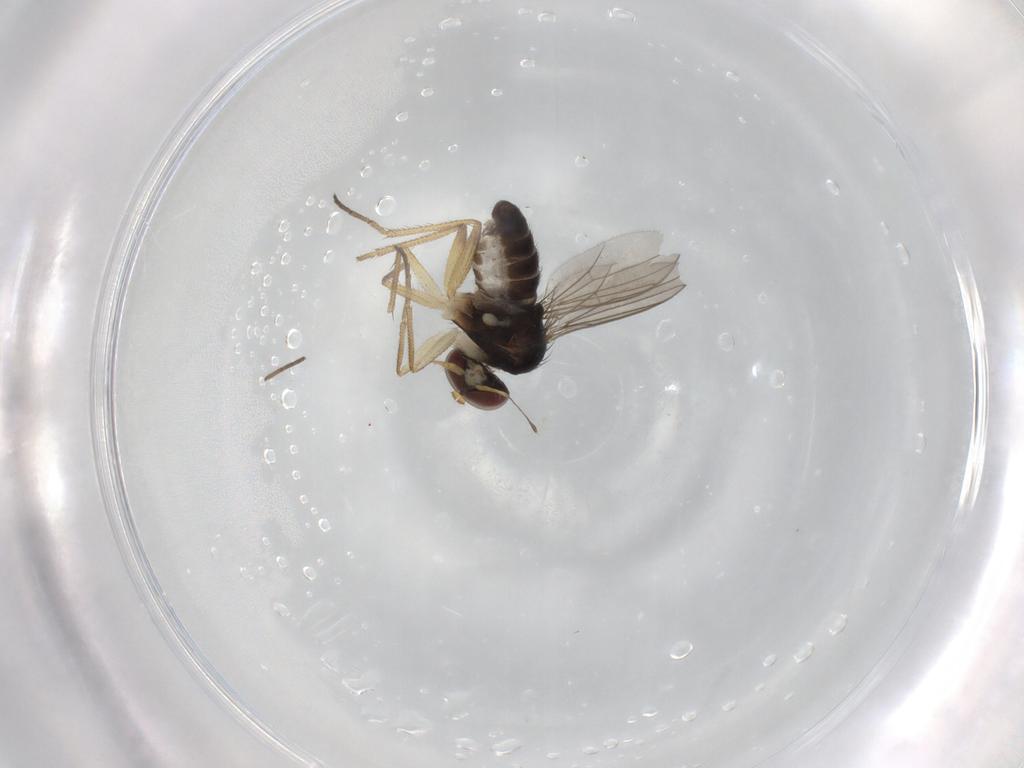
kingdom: Animalia
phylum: Arthropoda
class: Insecta
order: Diptera
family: Dolichopodidae
